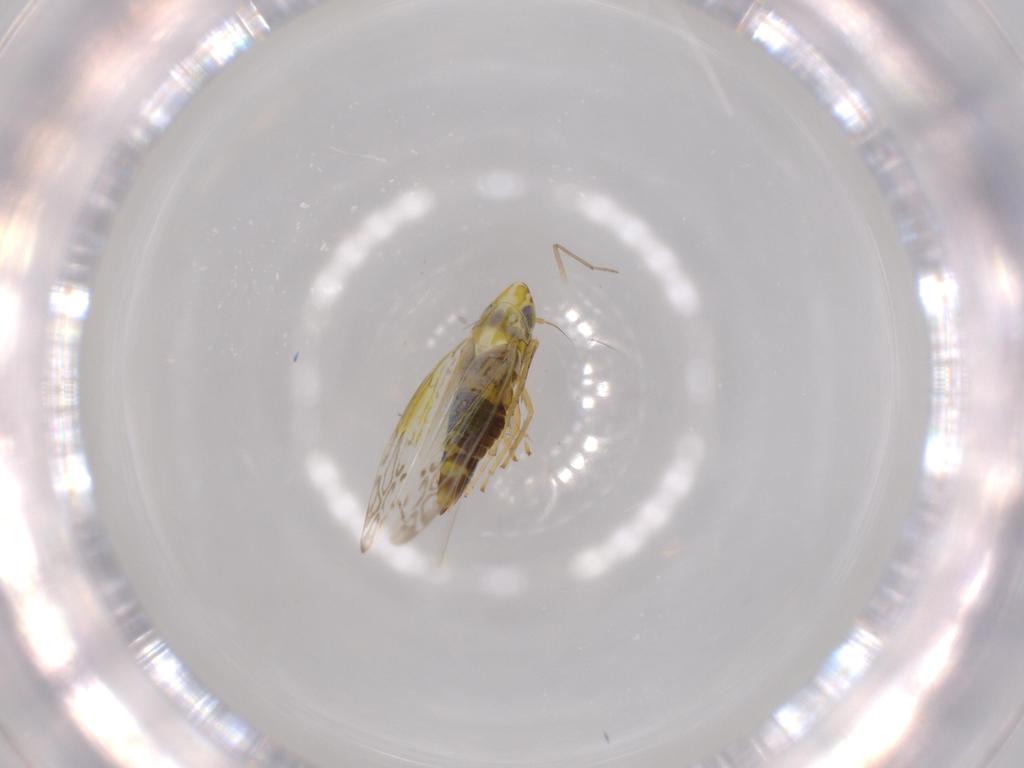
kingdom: Animalia
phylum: Arthropoda
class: Insecta
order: Hemiptera
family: Cicadellidae
